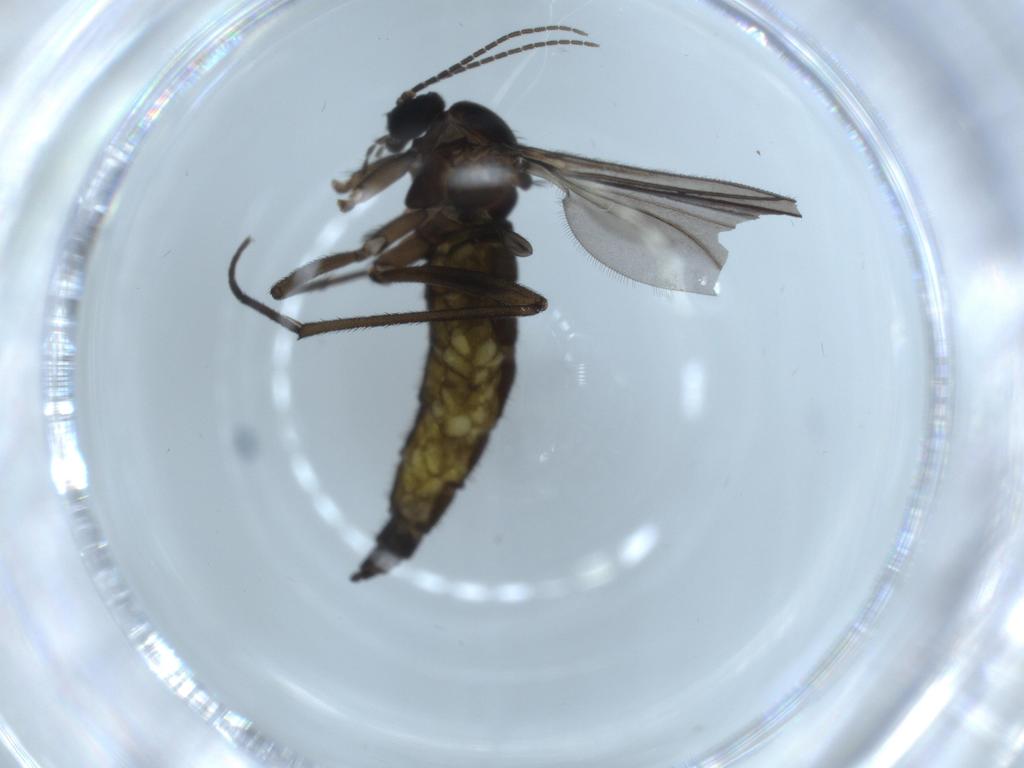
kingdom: Animalia
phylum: Arthropoda
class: Insecta
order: Diptera
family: Sciaridae
